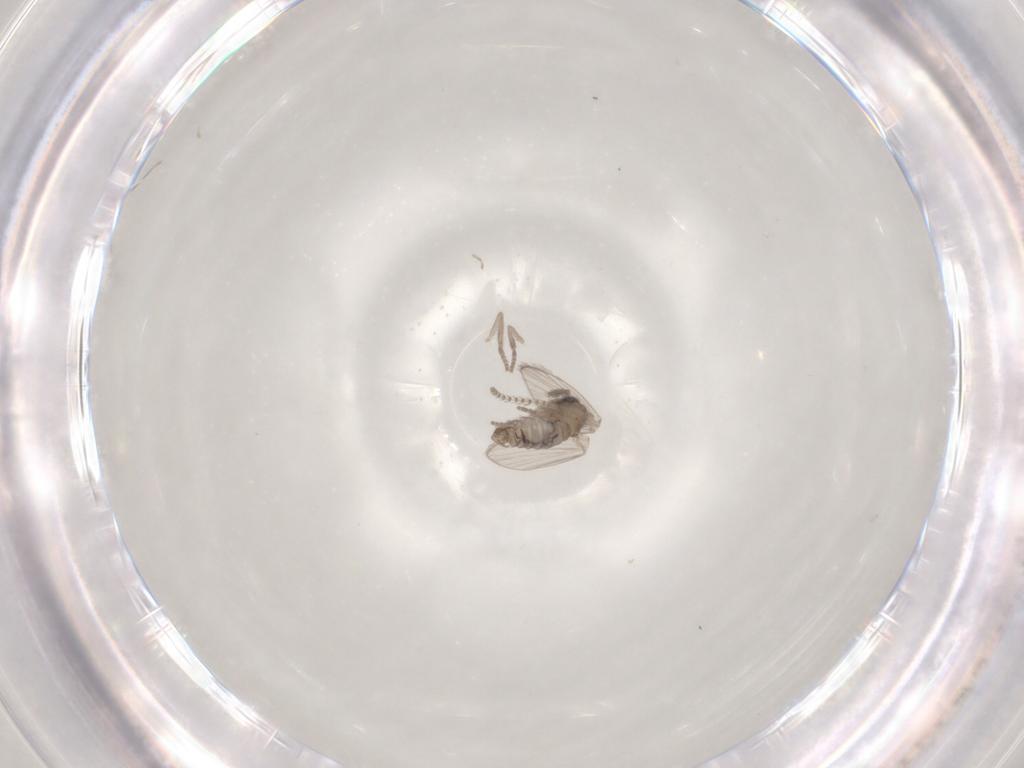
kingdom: Animalia
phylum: Arthropoda
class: Insecta
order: Diptera
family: Psychodidae
